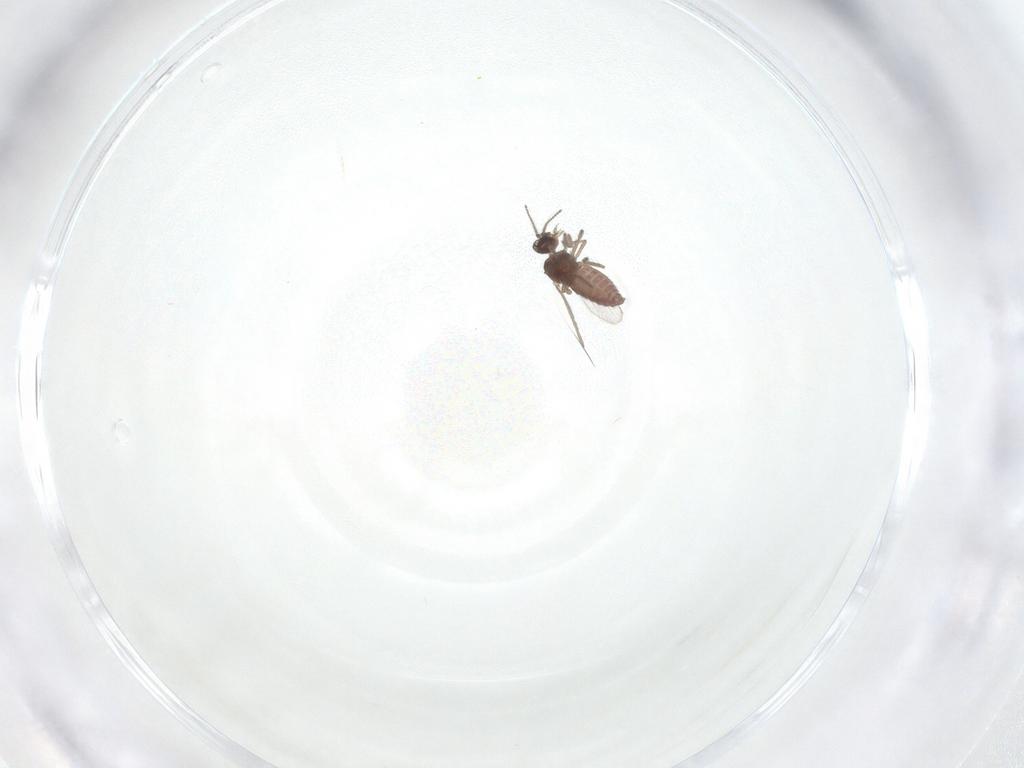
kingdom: Animalia
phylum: Arthropoda
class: Insecta
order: Diptera
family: Ceratopogonidae
